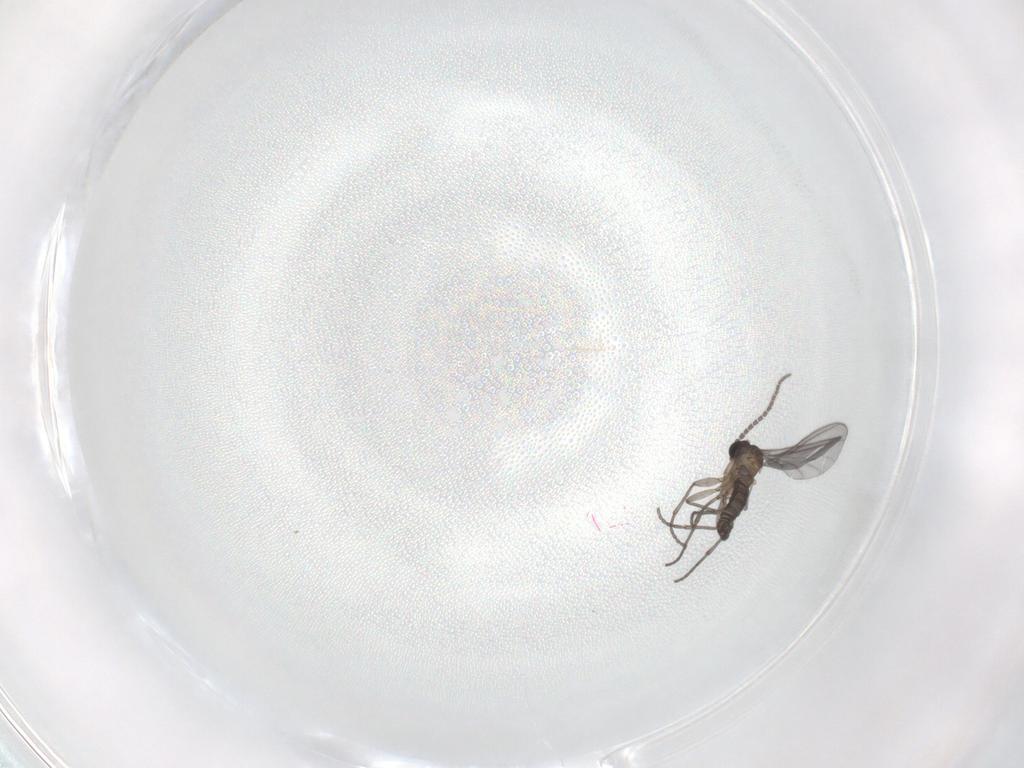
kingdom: Animalia
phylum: Arthropoda
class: Insecta
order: Diptera
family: Sciaridae
